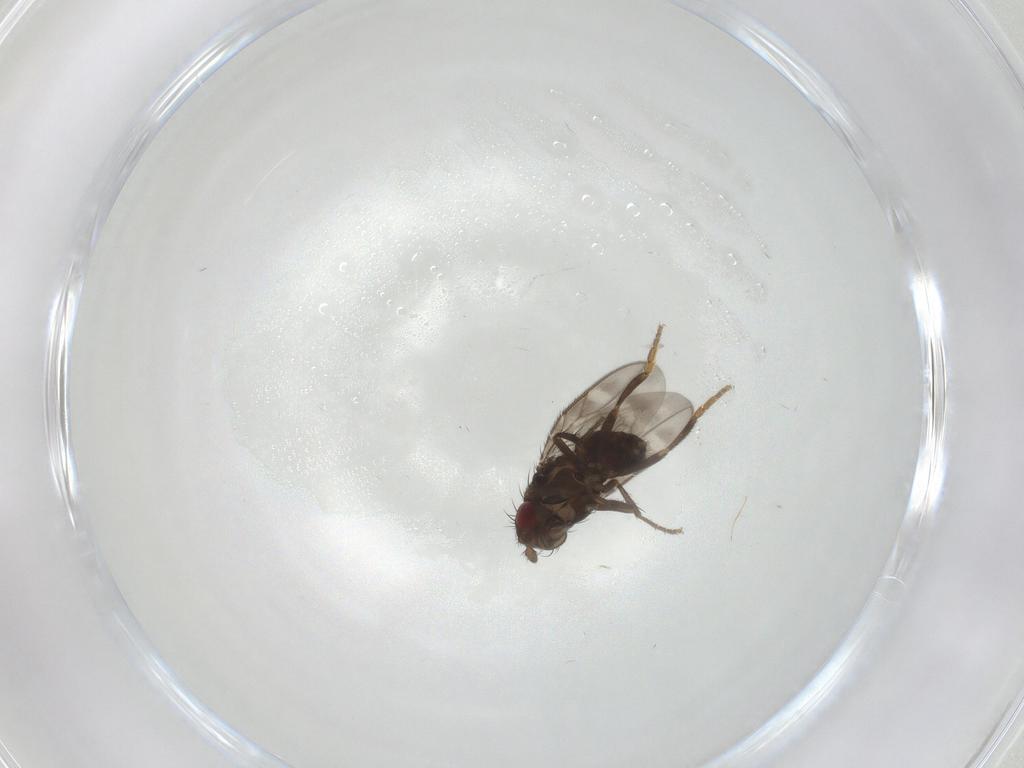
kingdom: Animalia
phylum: Arthropoda
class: Insecta
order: Diptera
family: Sphaeroceridae
